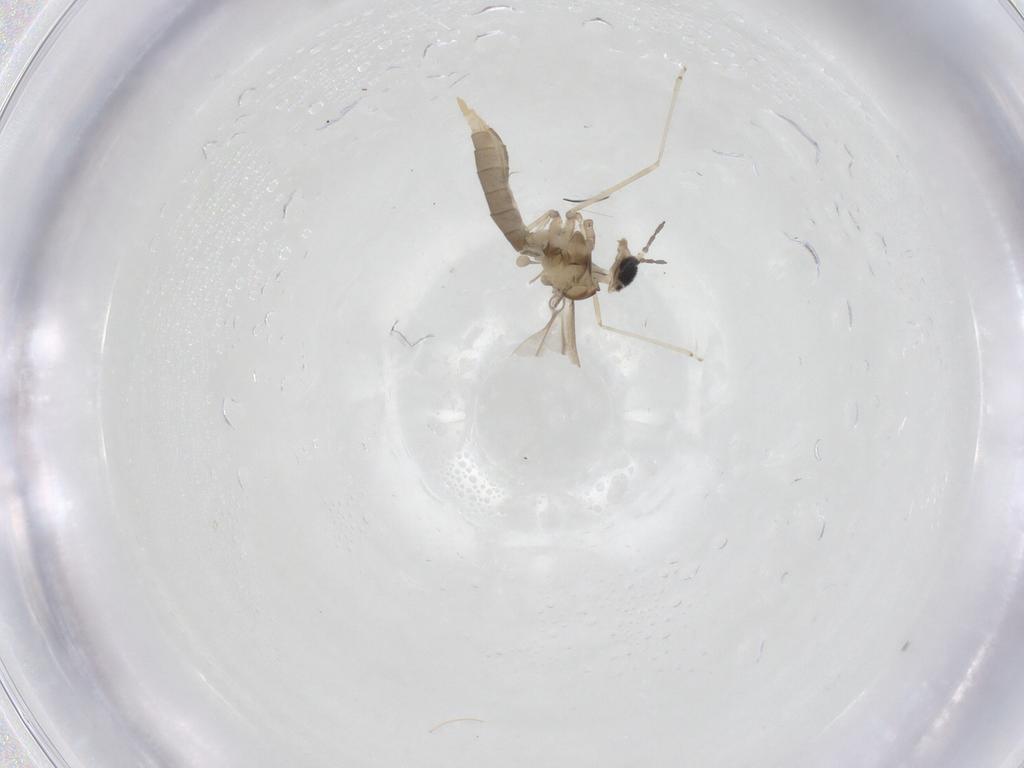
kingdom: Animalia
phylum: Arthropoda
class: Insecta
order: Diptera
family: Cecidomyiidae
